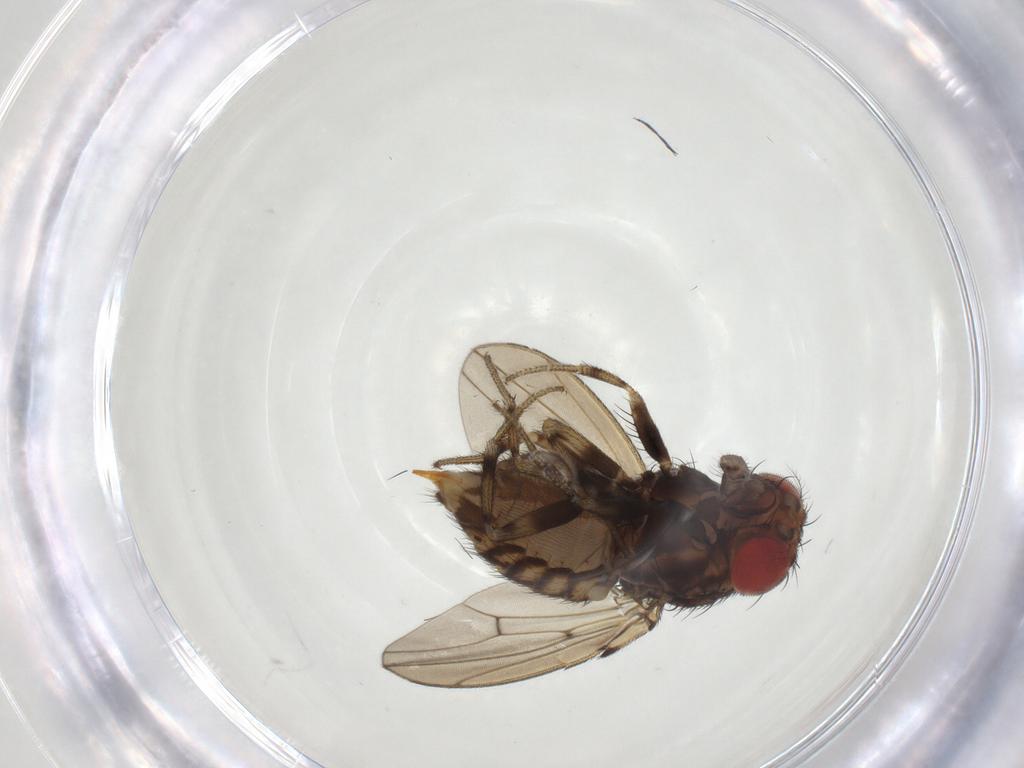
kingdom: Animalia
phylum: Arthropoda
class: Insecta
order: Diptera
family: Drosophilidae
